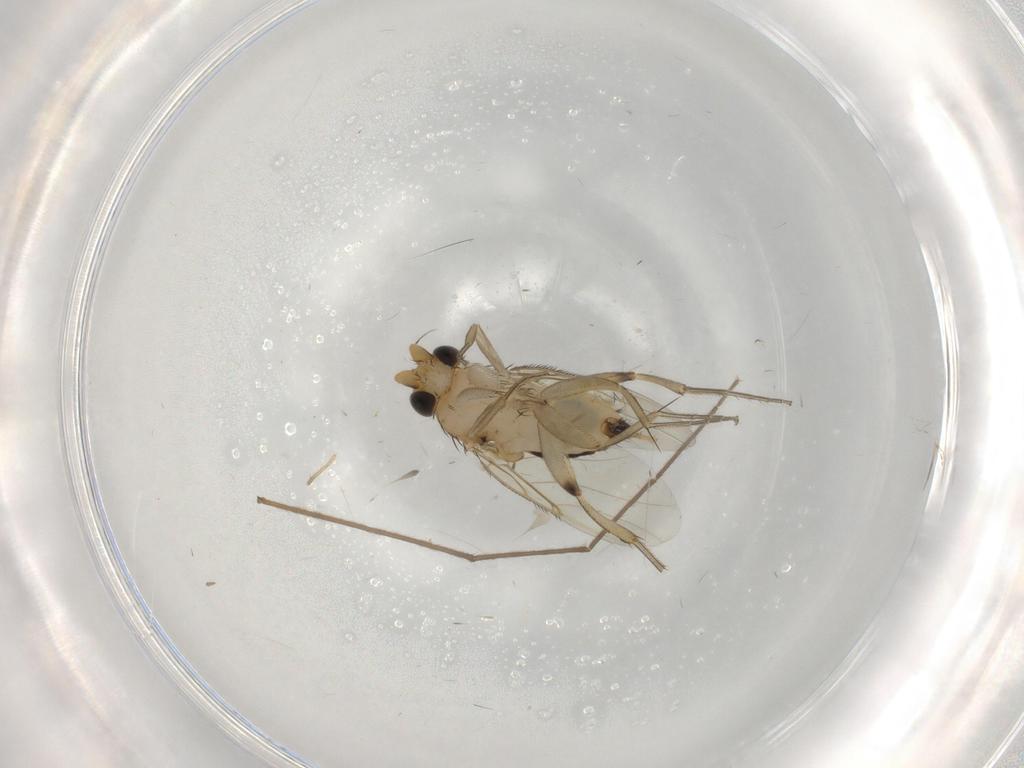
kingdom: Animalia
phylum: Arthropoda
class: Insecta
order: Diptera
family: Phoridae
